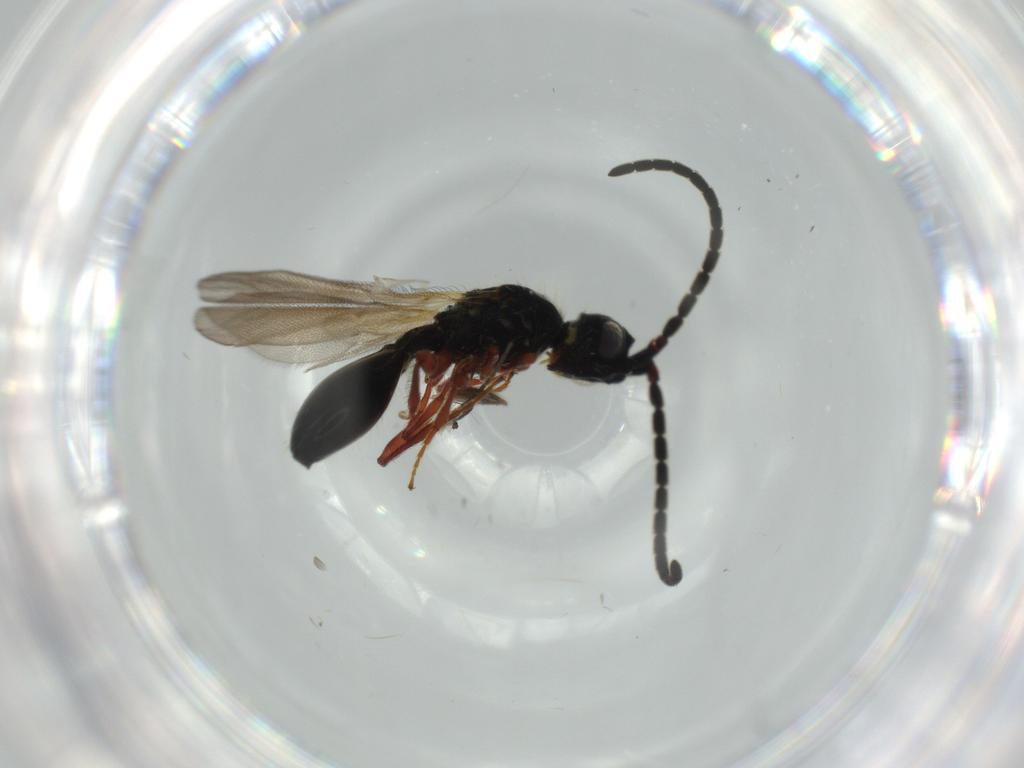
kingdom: Animalia
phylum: Arthropoda
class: Insecta
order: Hymenoptera
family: Diapriidae
